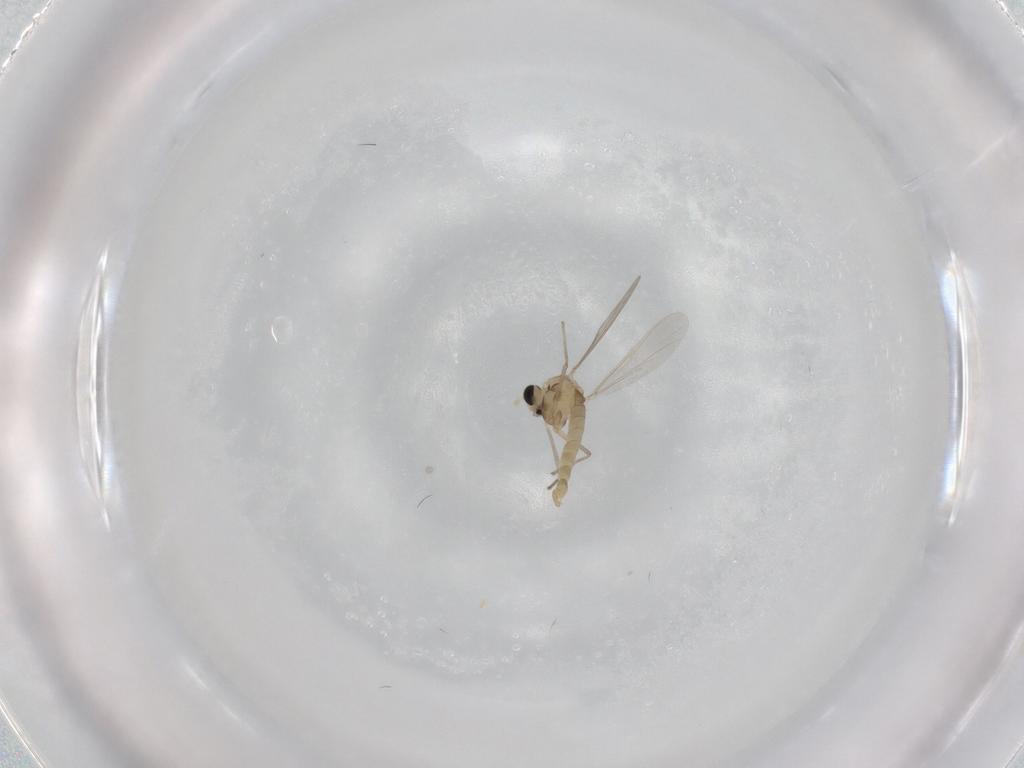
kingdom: Animalia
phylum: Arthropoda
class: Insecta
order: Diptera
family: Chironomidae
